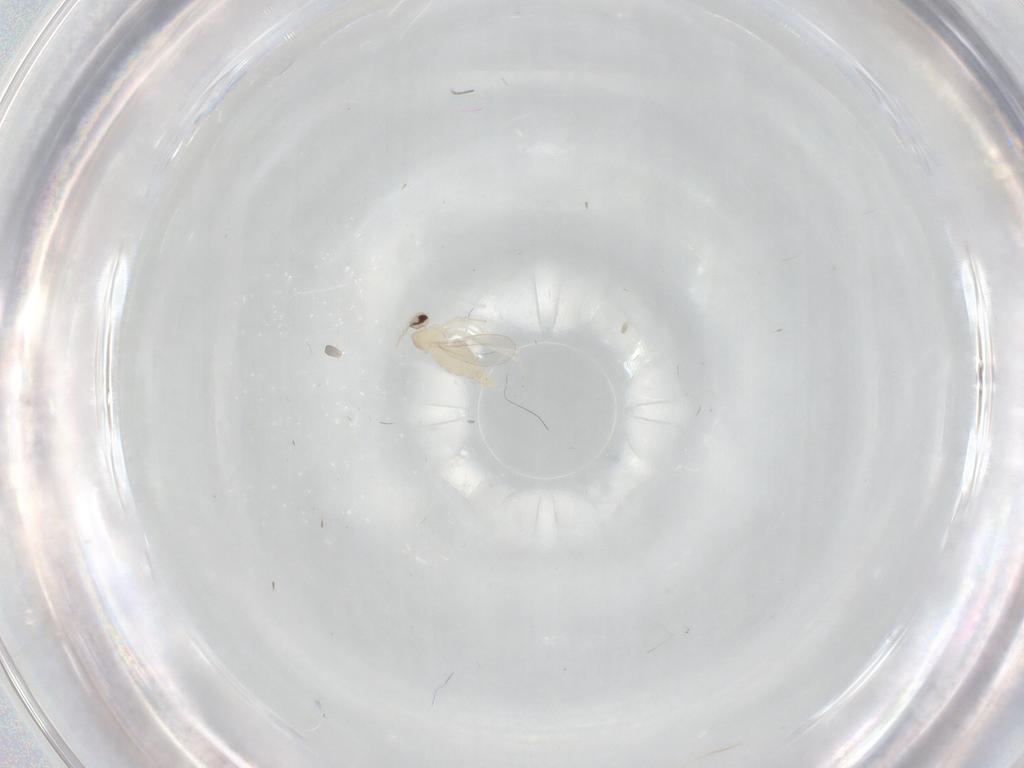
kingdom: Animalia
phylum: Arthropoda
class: Insecta
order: Diptera
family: Cecidomyiidae
